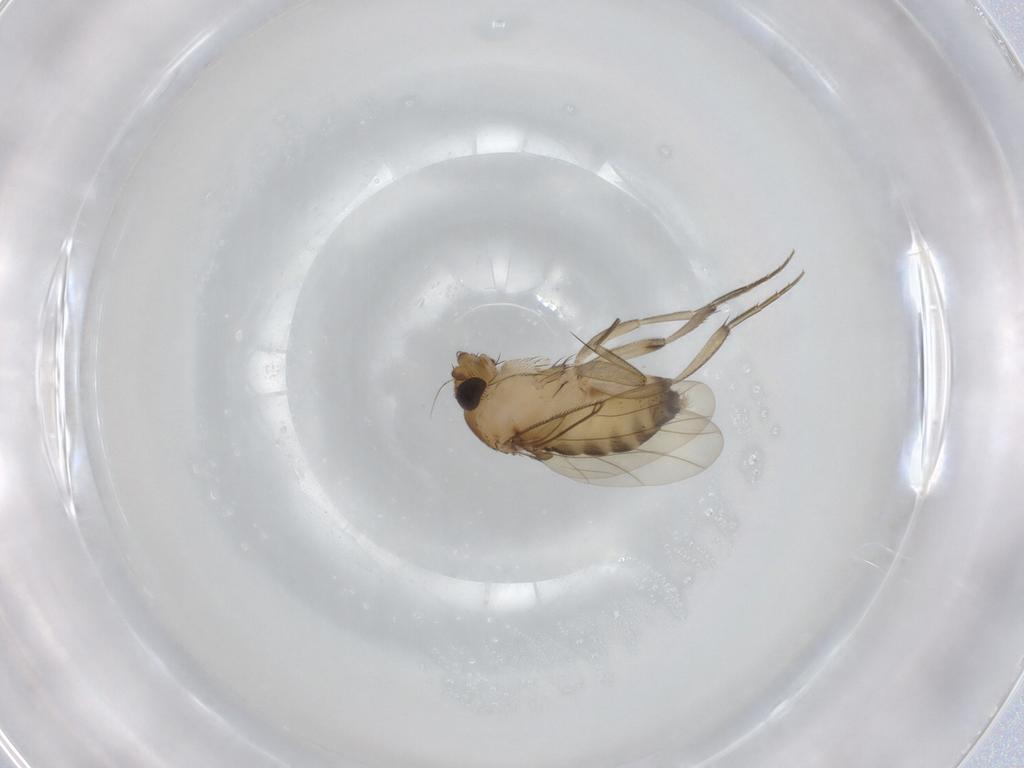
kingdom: Animalia
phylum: Arthropoda
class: Insecta
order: Diptera
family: Phoridae
